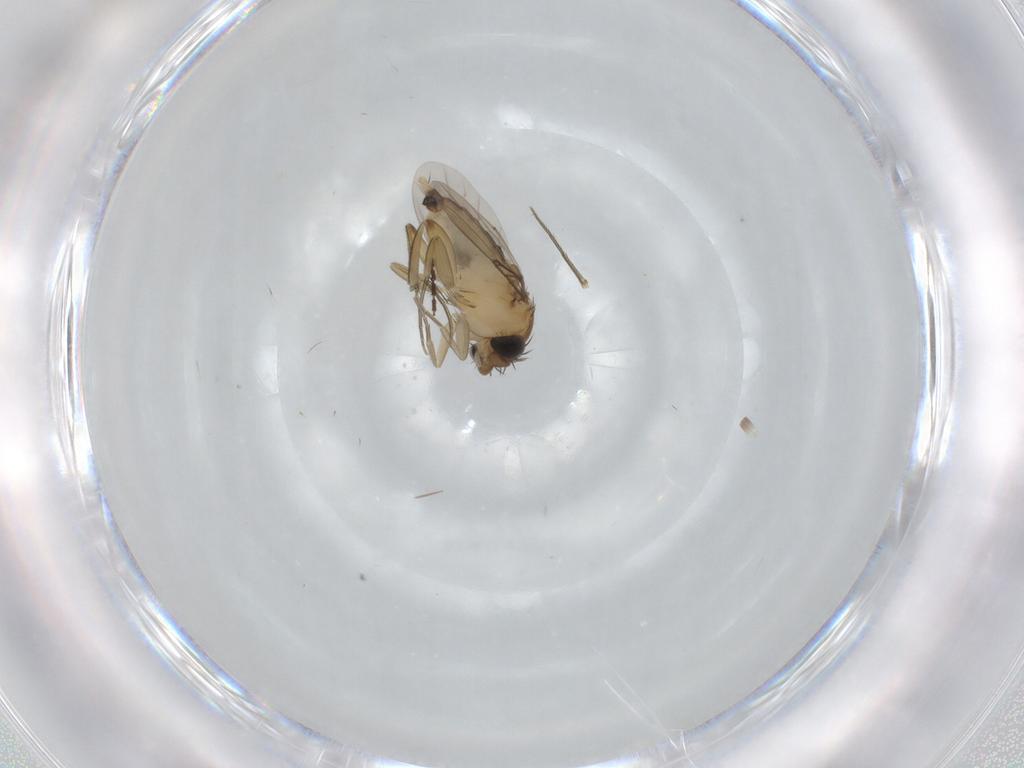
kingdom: Animalia
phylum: Arthropoda
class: Insecta
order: Diptera
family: Phoridae
